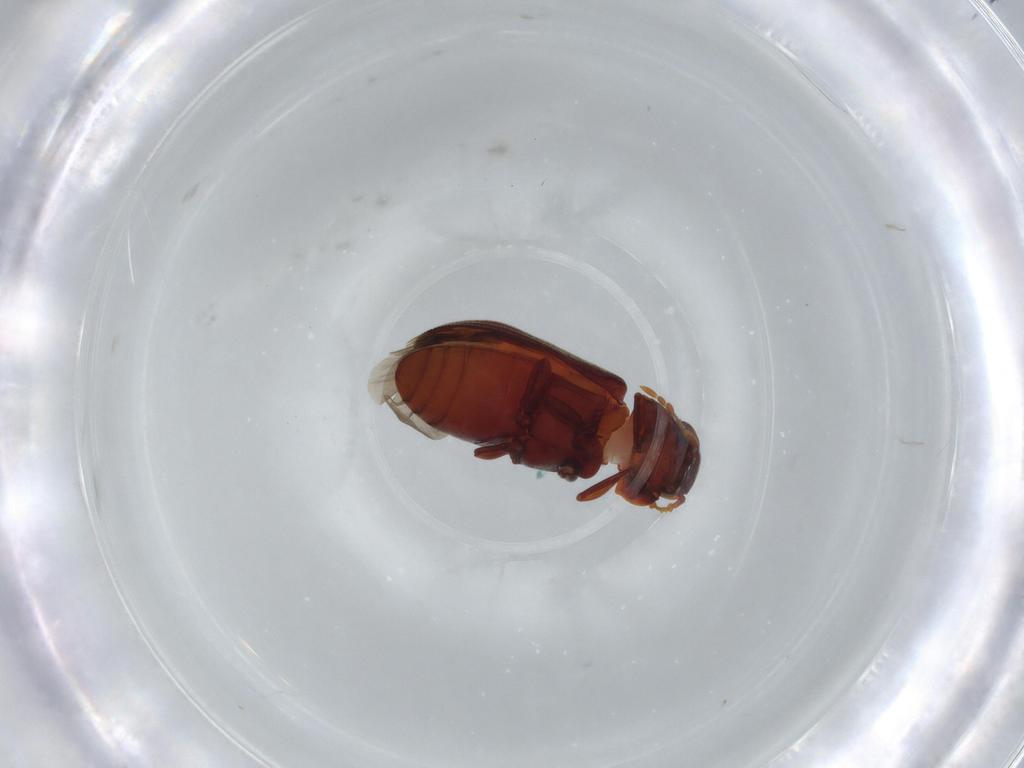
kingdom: Animalia
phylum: Arthropoda
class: Insecta
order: Coleoptera
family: Ptinidae
